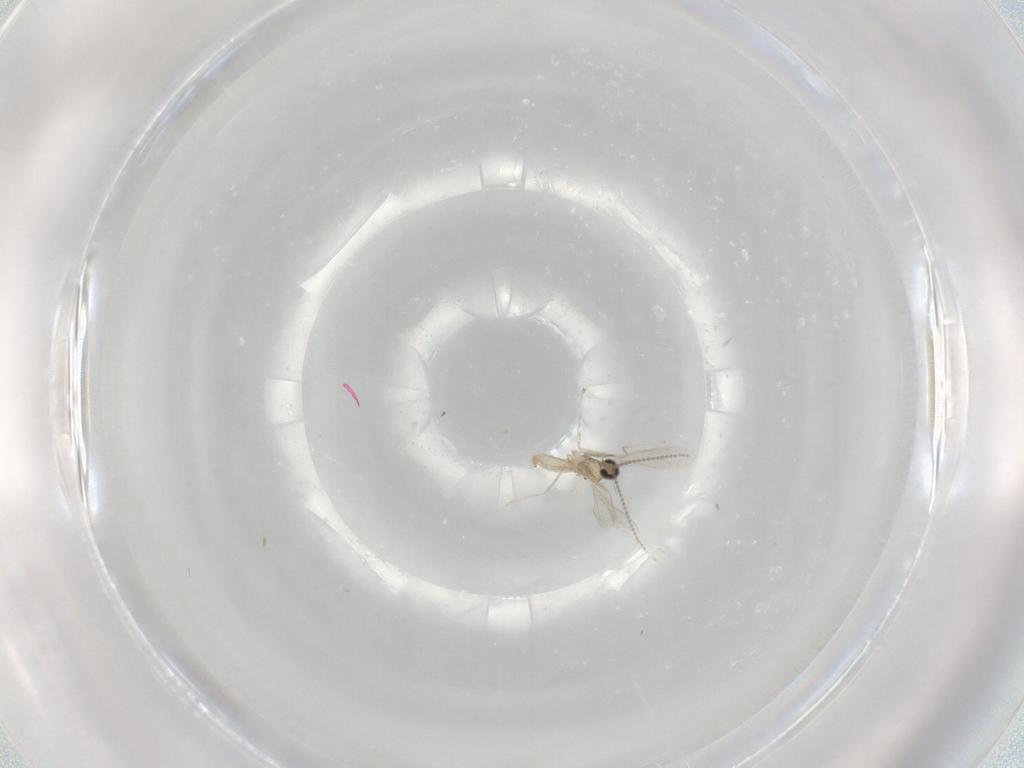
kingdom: Animalia
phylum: Arthropoda
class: Insecta
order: Diptera
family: Cecidomyiidae
